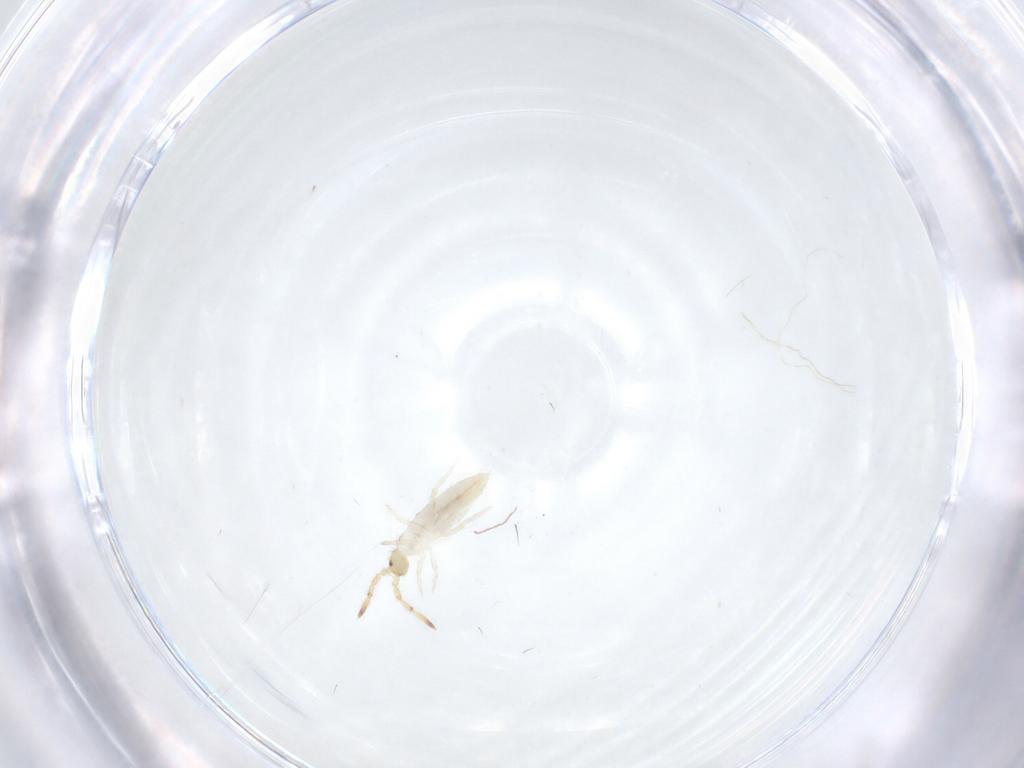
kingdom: Animalia
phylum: Arthropoda
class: Collembola
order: Entomobryomorpha
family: Entomobryidae
